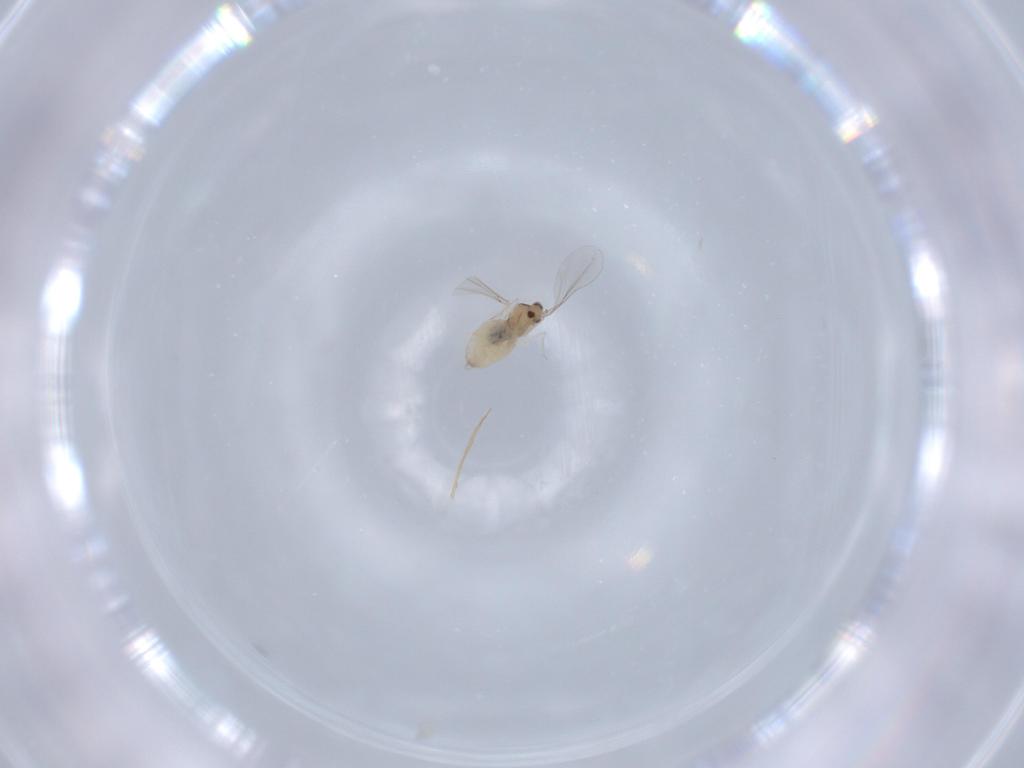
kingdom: Animalia
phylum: Arthropoda
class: Insecta
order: Diptera
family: Cecidomyiidae
